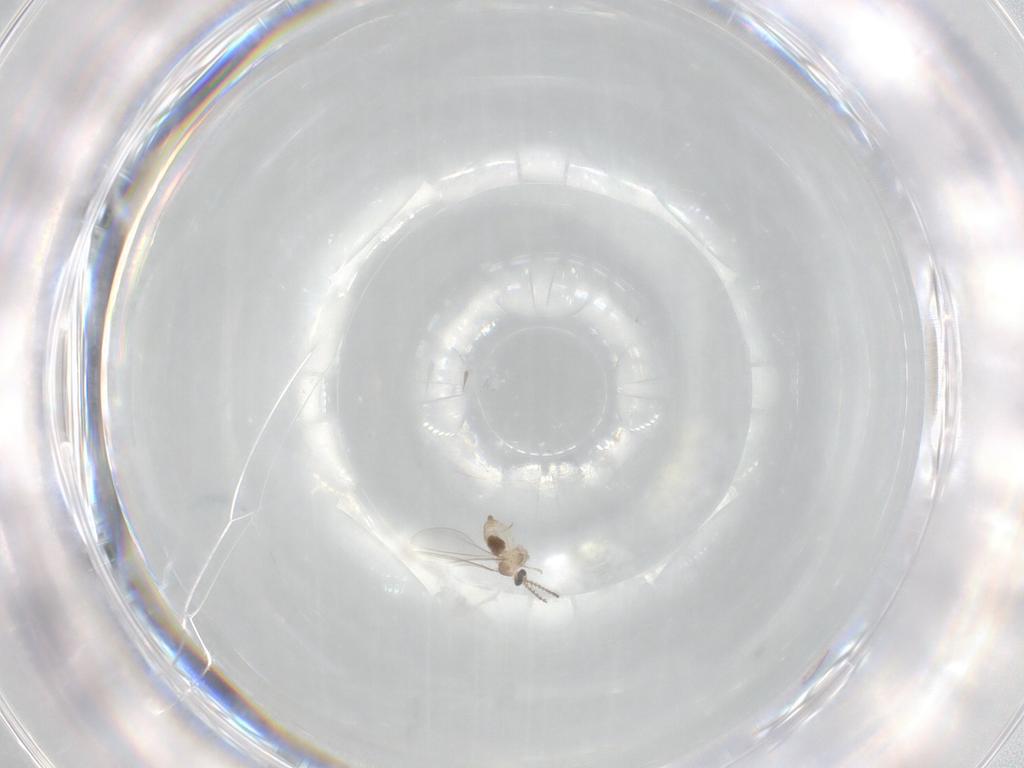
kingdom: Animalia
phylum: Arthropoda
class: Insecta
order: Diptera
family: Cecidomyiidae
